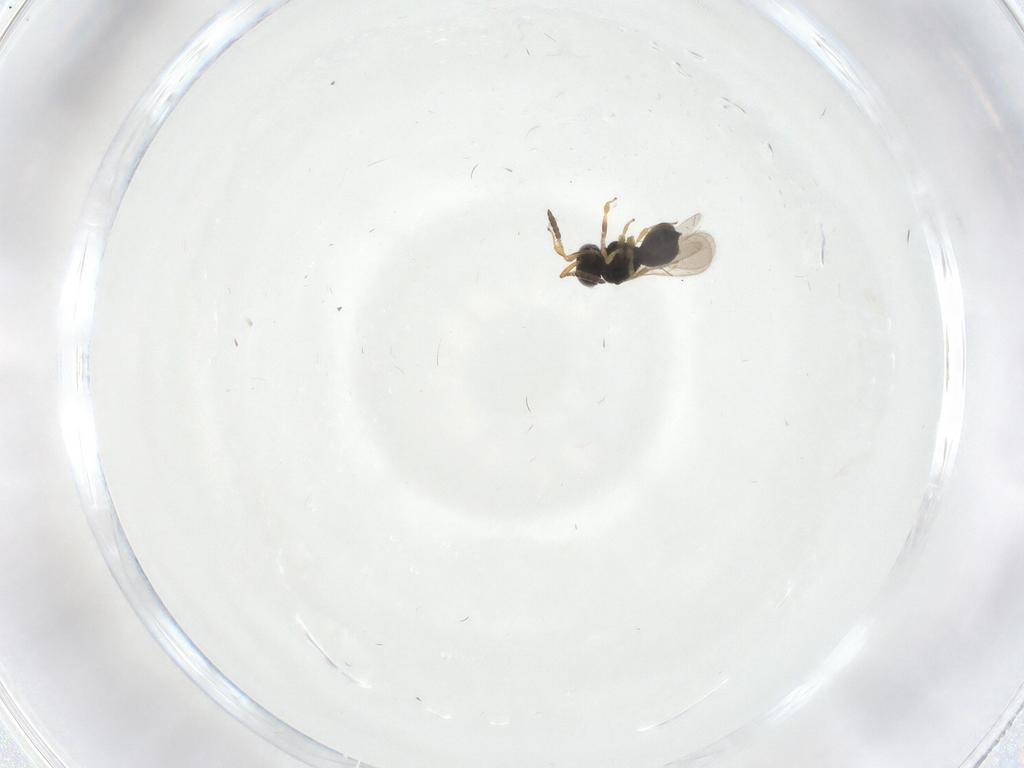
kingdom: Animalia
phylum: Arthropoda
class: Insecta
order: Hymenoptera
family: Scelionidae
